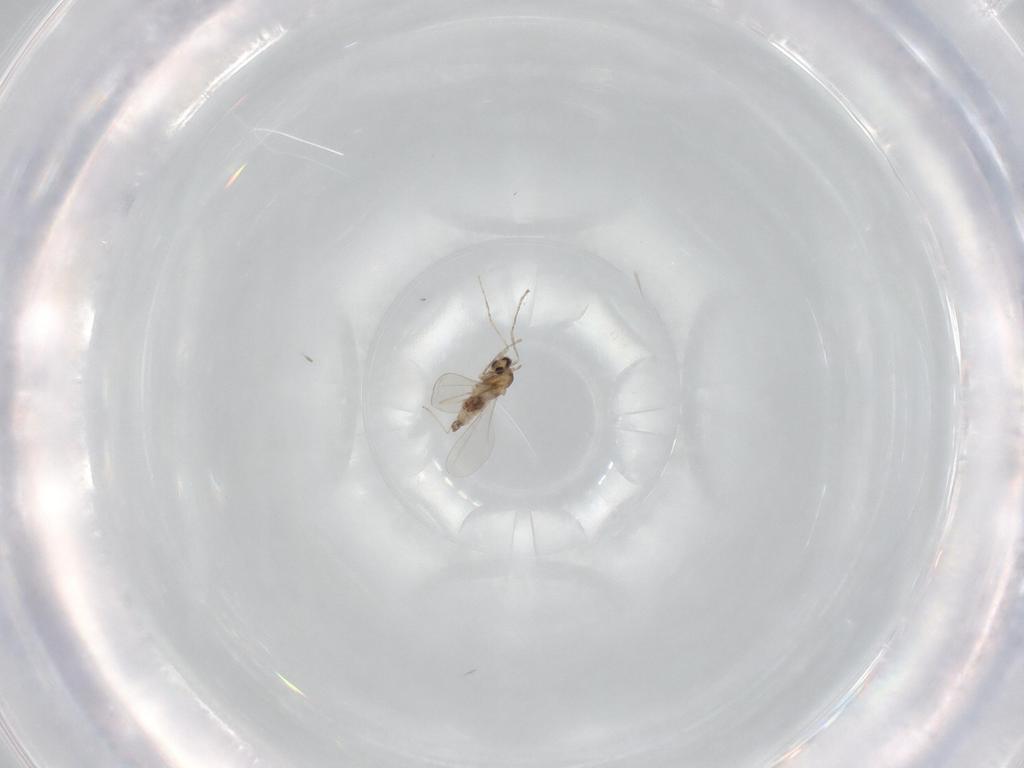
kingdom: Animalia
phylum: Arthropoda
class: Insecta
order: Diptera
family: Cecidomyiidae
